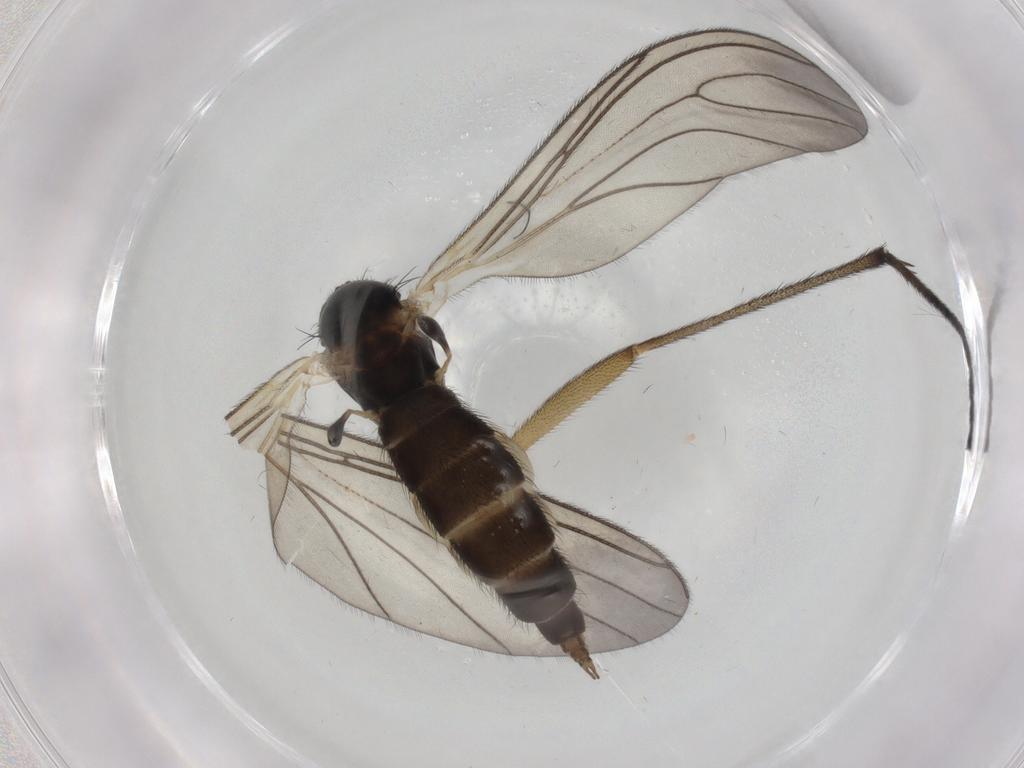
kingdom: Animalia
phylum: Arthropoda
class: Insecta
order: Diptera
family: Sciaridae
